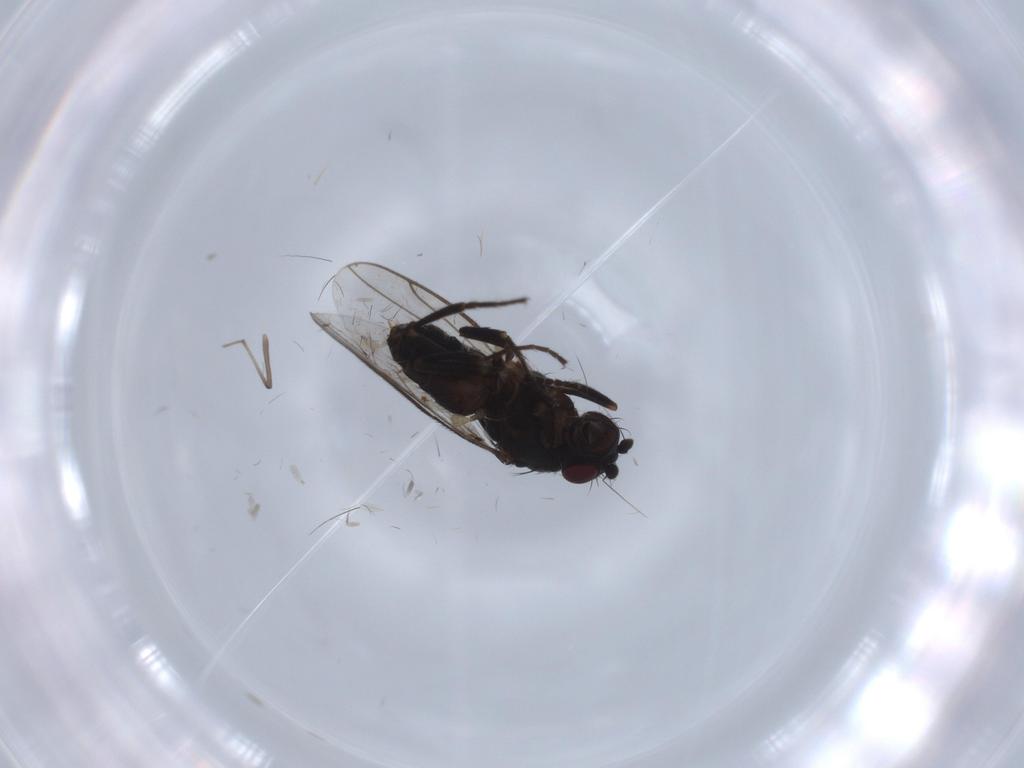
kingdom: Animalia
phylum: Arthropoda
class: Insecta
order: Diptera
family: Sphaeroceridae
